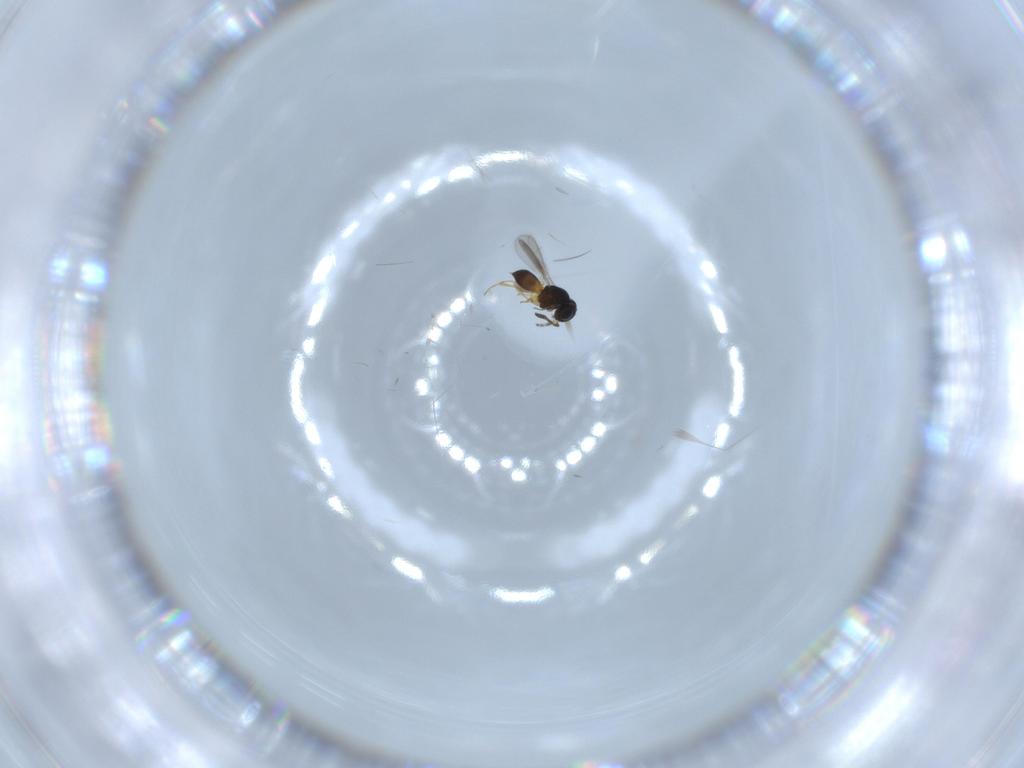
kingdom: Animalia
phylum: Arthropoda
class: Insecta
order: Hymenoptera
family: Scelionidae
